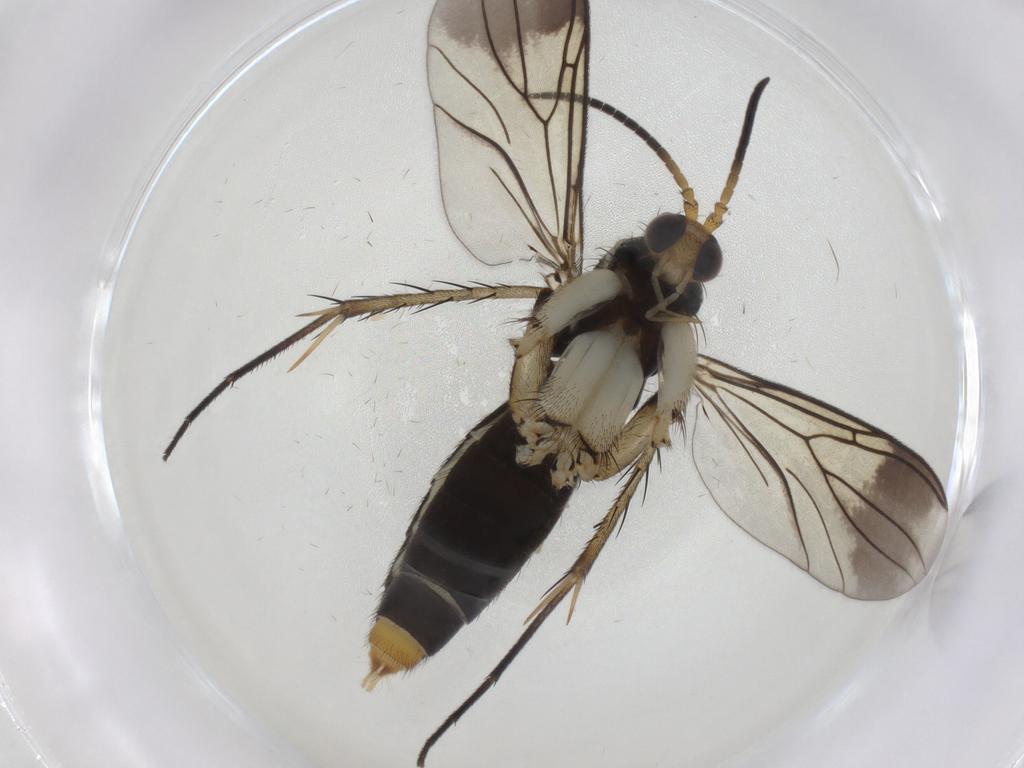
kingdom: Animalia
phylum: Arthropoda
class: Insecta
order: Diptera
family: Mycetophilidae
